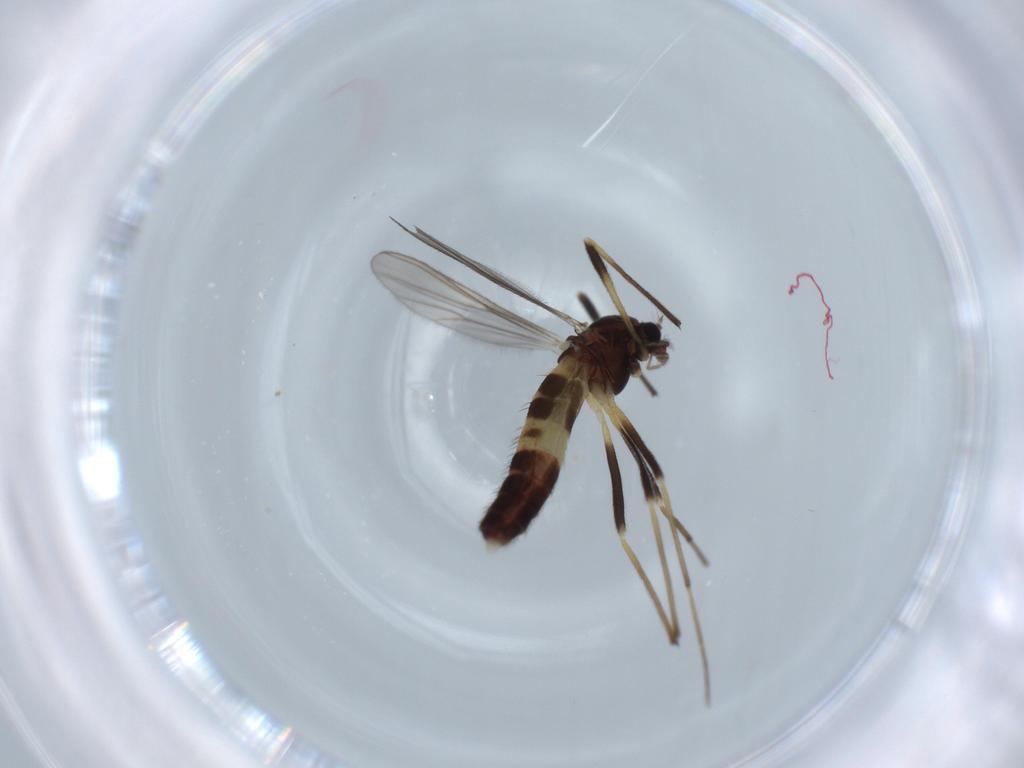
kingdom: Animalia
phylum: Arthropoda
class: Insecta
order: Diptera
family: Chironomidae
